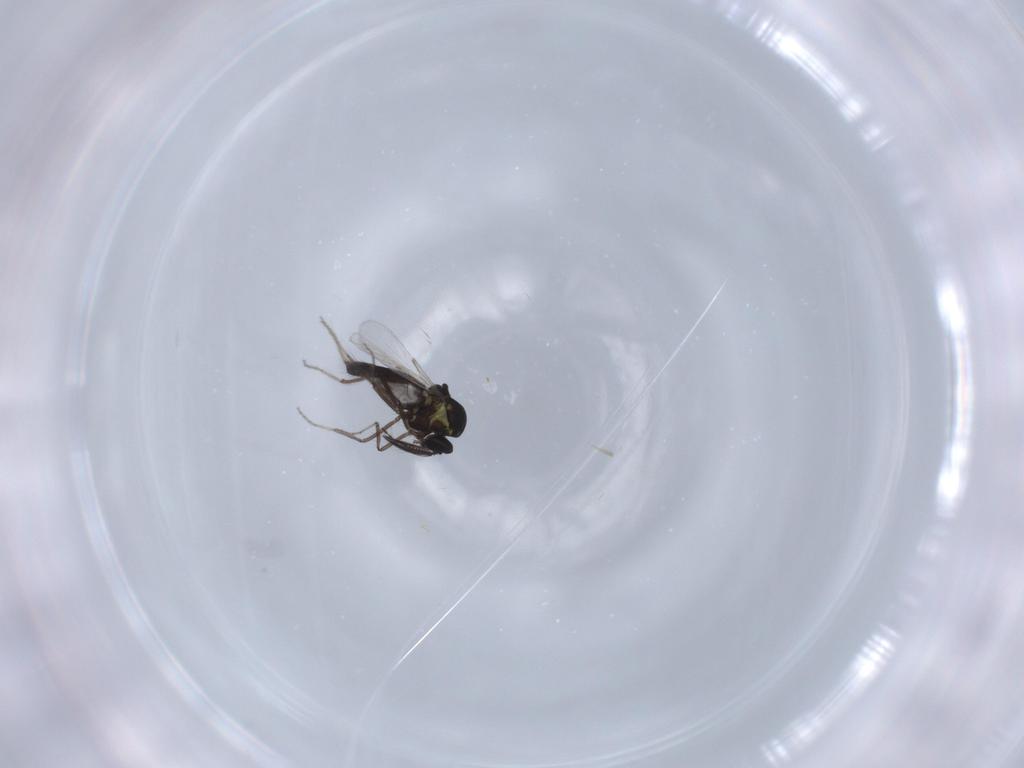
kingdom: Animalia
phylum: Arthropoda
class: Insecta
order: Diptera
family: Ceratopogonidae
